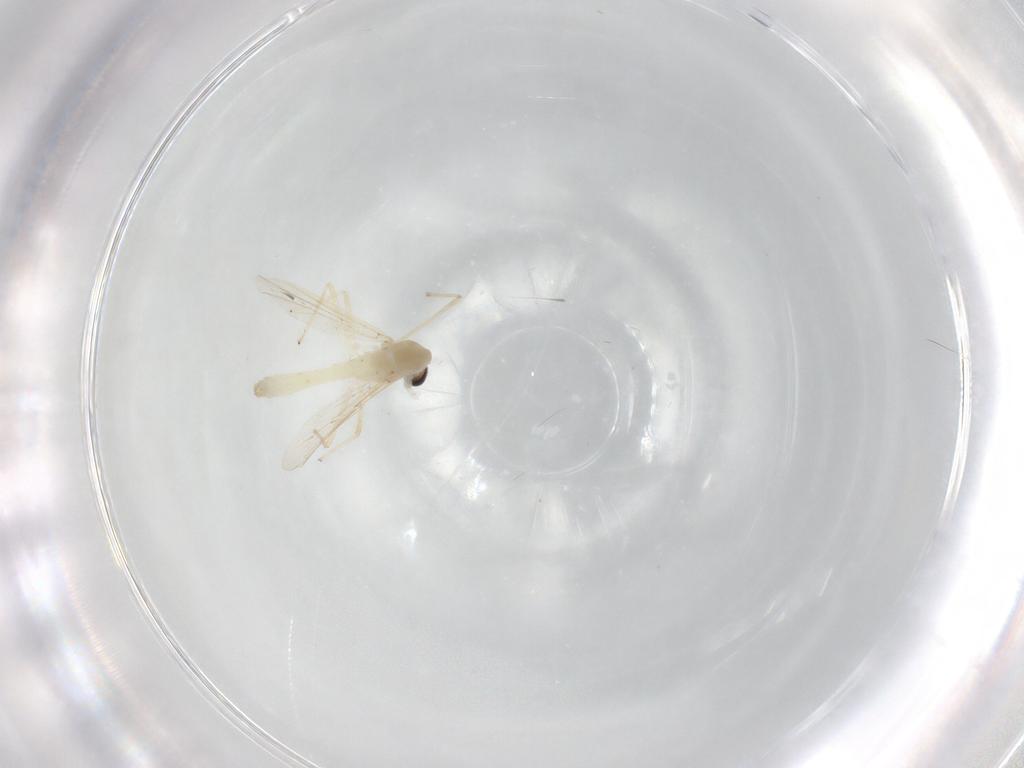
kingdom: Animalia
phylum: Arthropoda
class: Insecta
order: Diptera
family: Chironomidae
